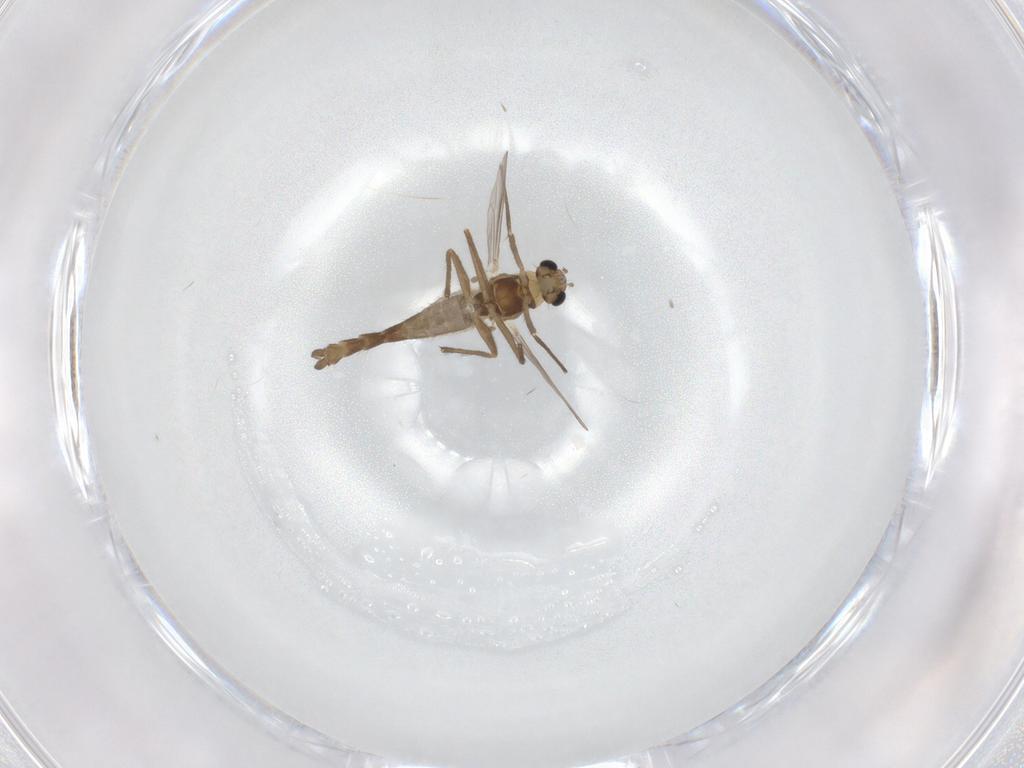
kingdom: Animalia
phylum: Arthropoda
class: Insecta
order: Diptera
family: Chironomidae
